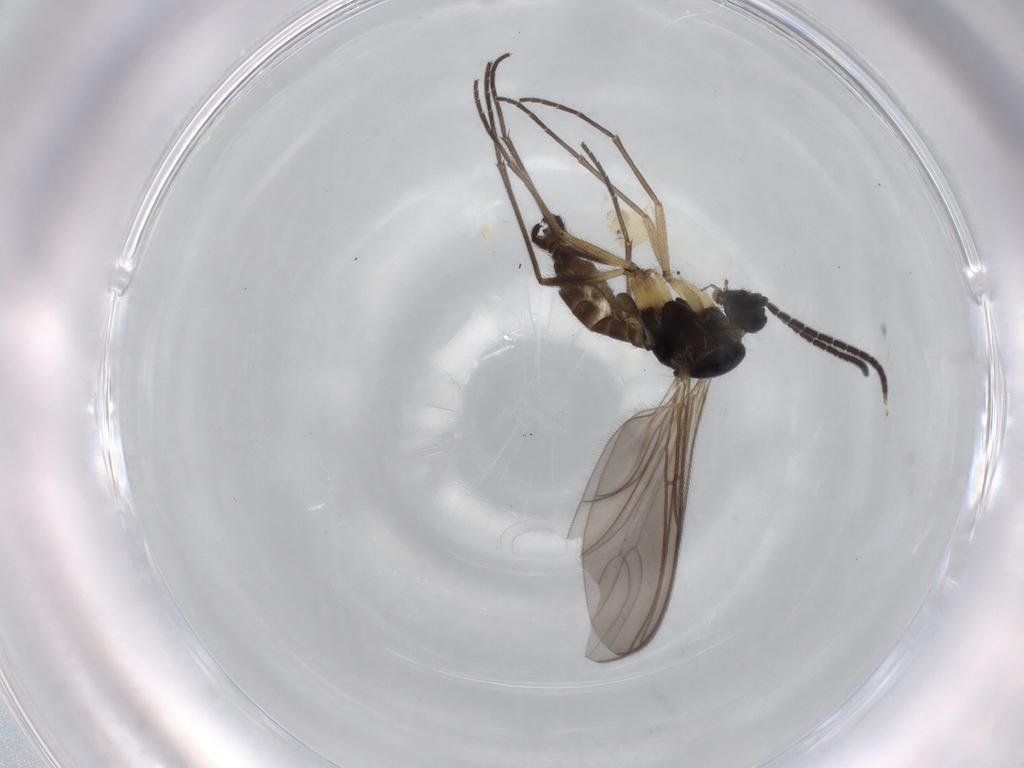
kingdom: Animalia
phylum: Arthropoda
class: Insecta
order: Diptera
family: Sciaridae
